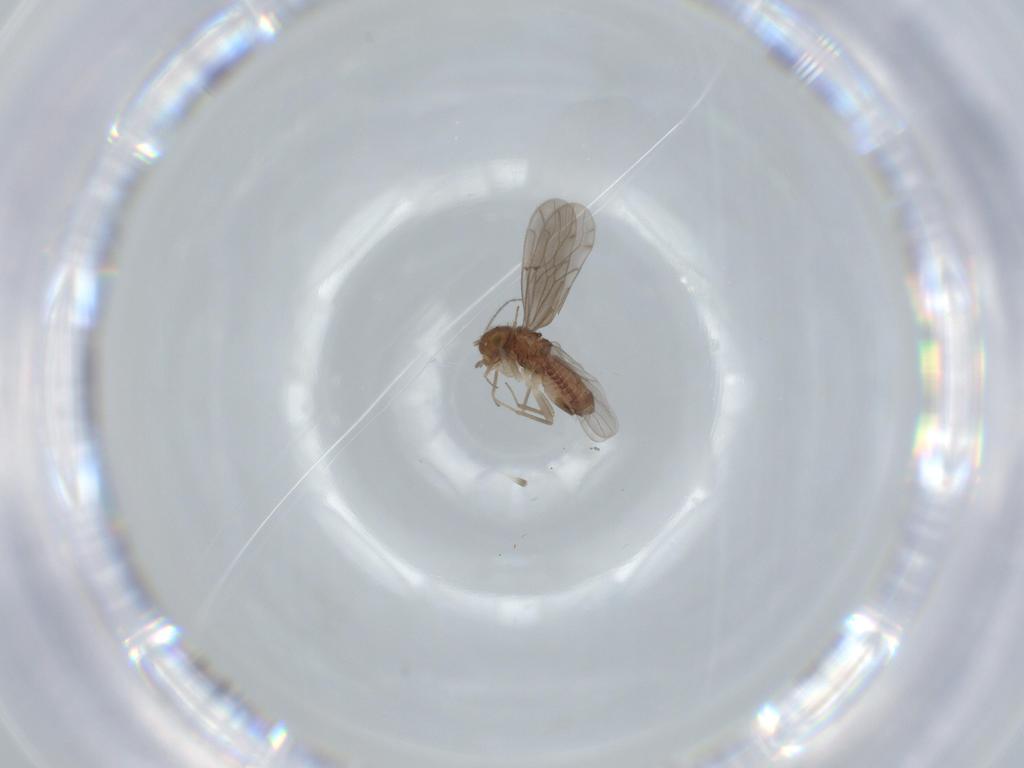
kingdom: Animalia
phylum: Arthropoda
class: Insecta
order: Psocodea
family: Ectopsocidae
